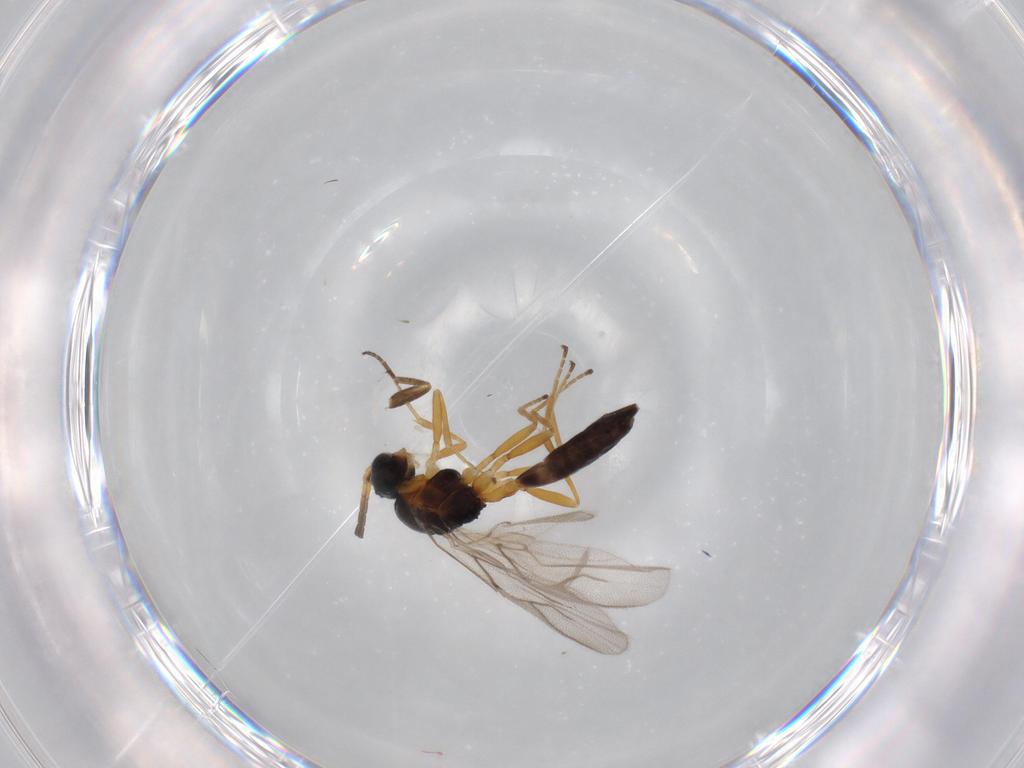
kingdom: Animalia
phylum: Arthropoda
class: Insecta
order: Hymenoptera
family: Braconidae
